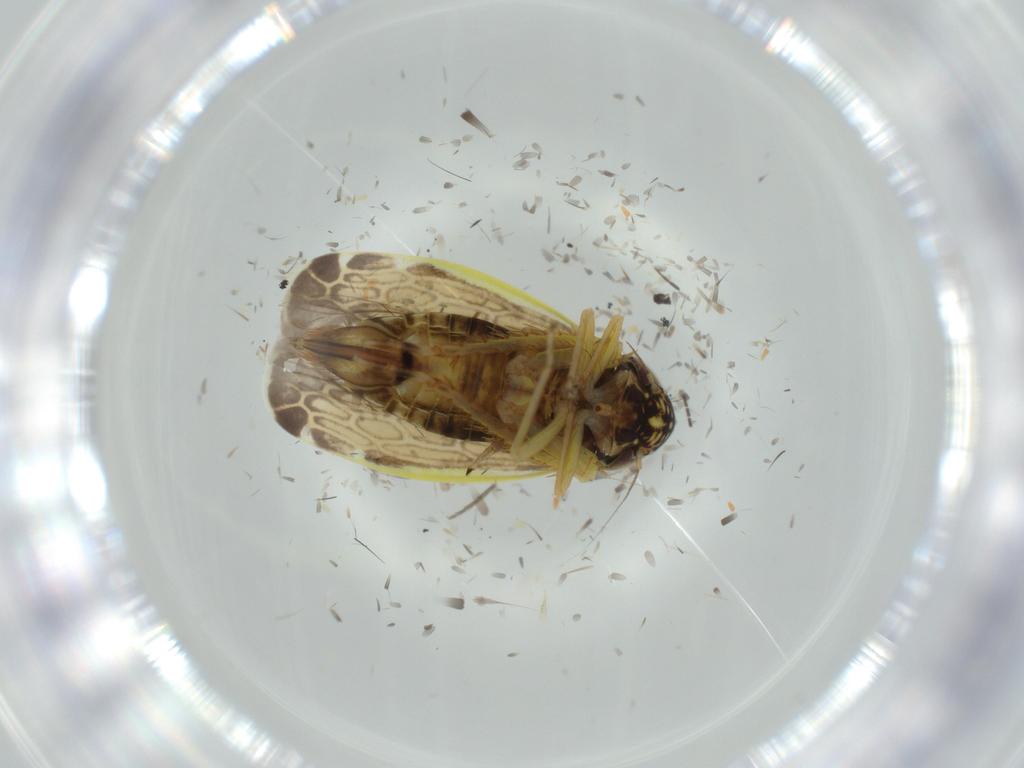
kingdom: Animalia
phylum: Arthropoda
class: Insecta
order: Hemiptera
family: Cicadellidae
